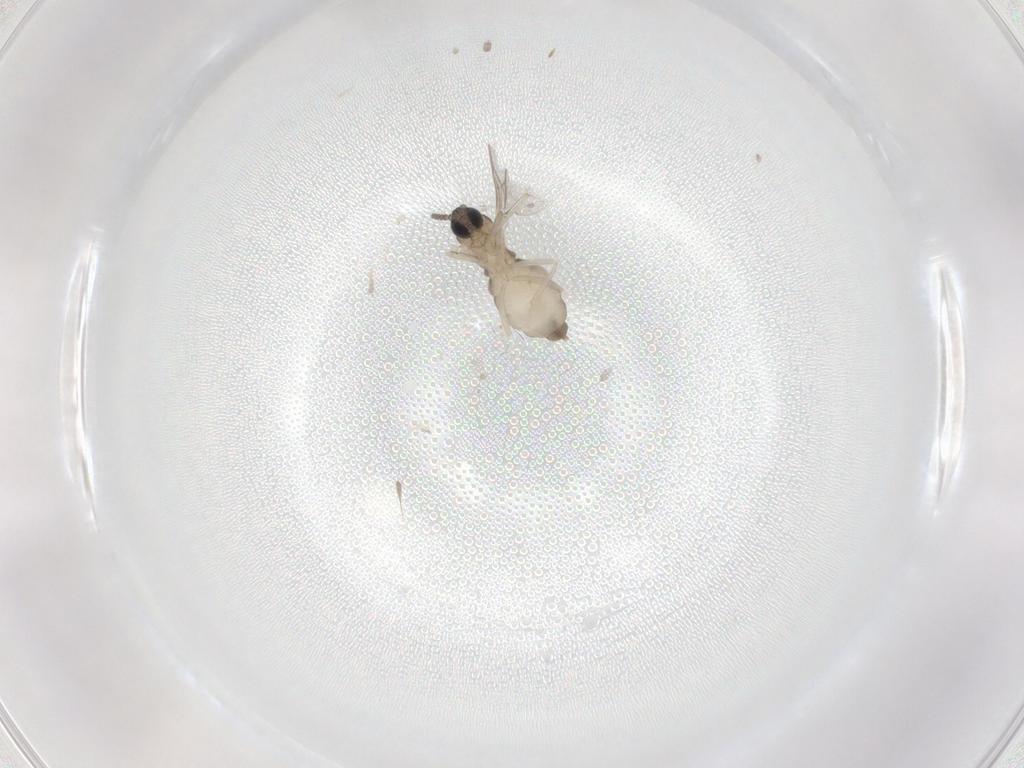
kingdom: Animalia
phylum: Arthropoda
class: Insecta
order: Diptera
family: Cecidomyiidae
